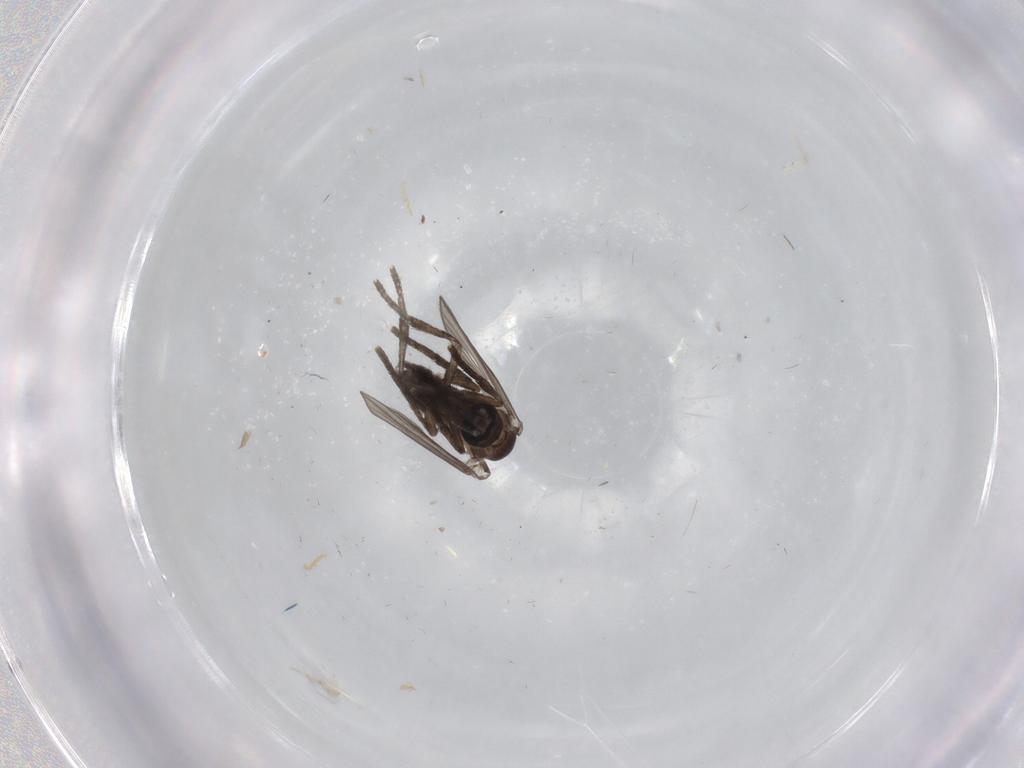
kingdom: Animalia
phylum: Arthropoda
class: Insecta
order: Diptera
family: Psychodidae
